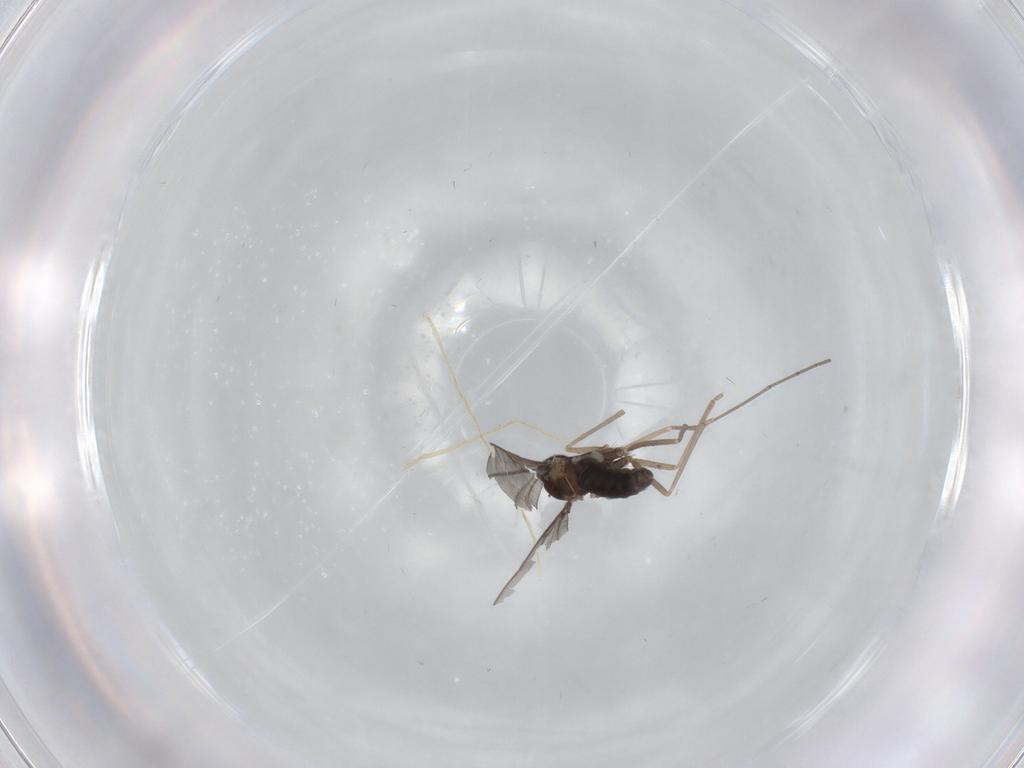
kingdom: Animalia
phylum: Arthropoda
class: Insecta
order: Diptera
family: Cecidomyiidae
